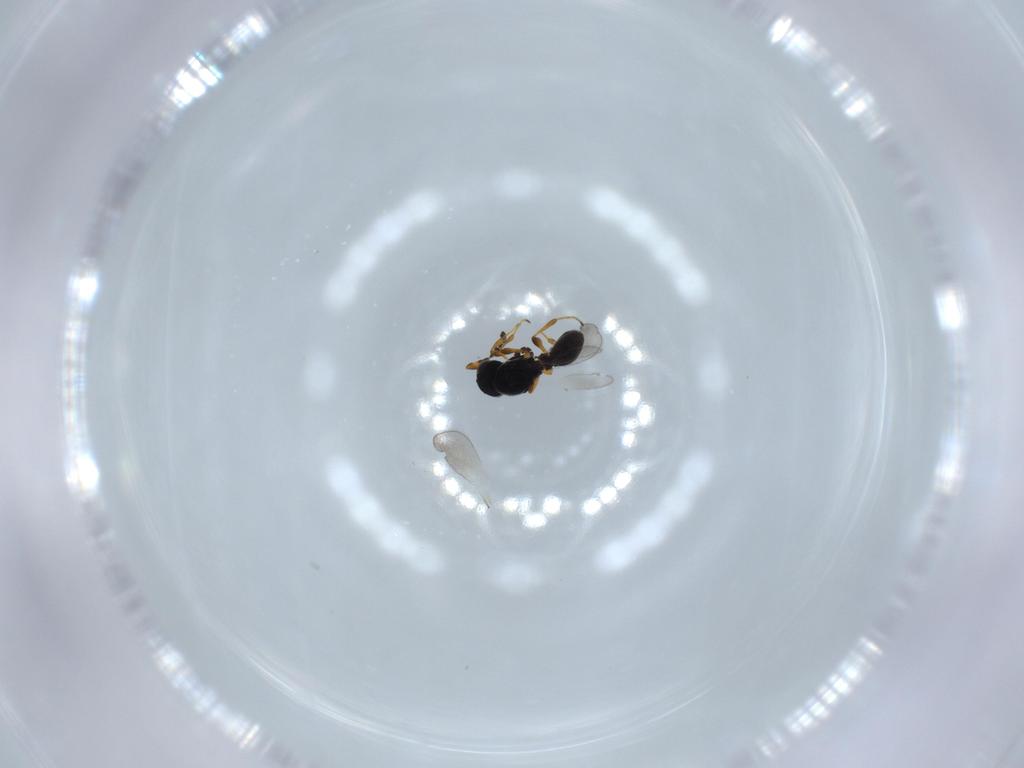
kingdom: Animalia
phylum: Arthropoda
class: Insecta
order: Hymenoptera
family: Platygastridae
